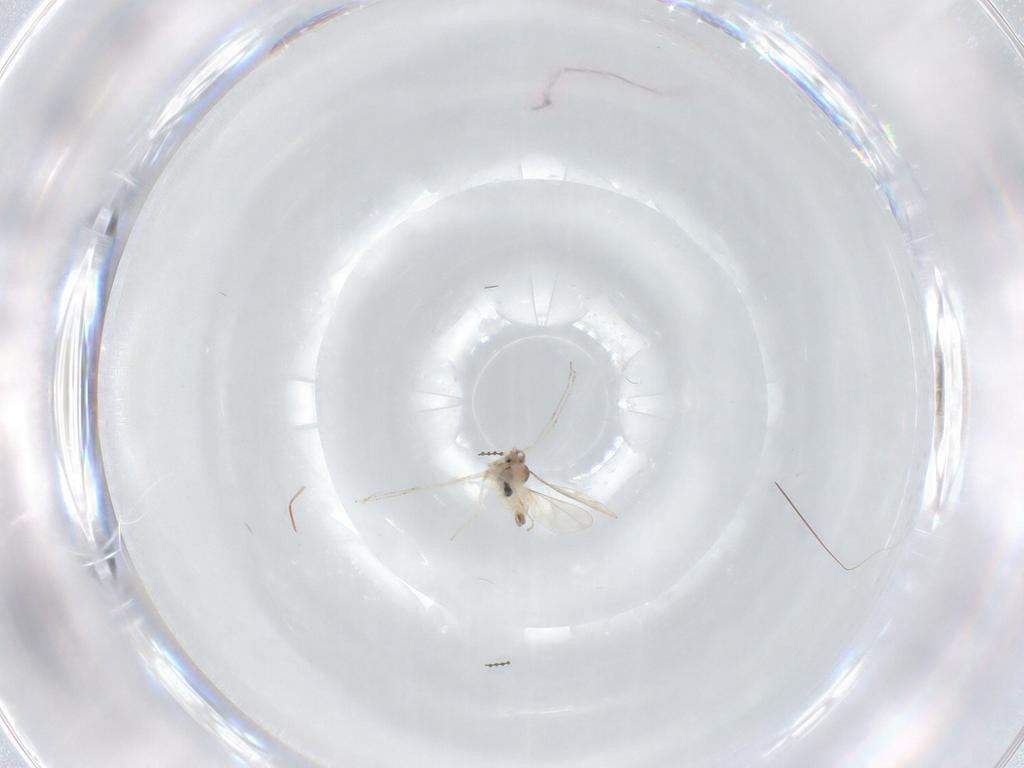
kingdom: Animalia
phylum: Arthropoda
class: Insecta
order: Diptera
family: Cecidomyiidae
